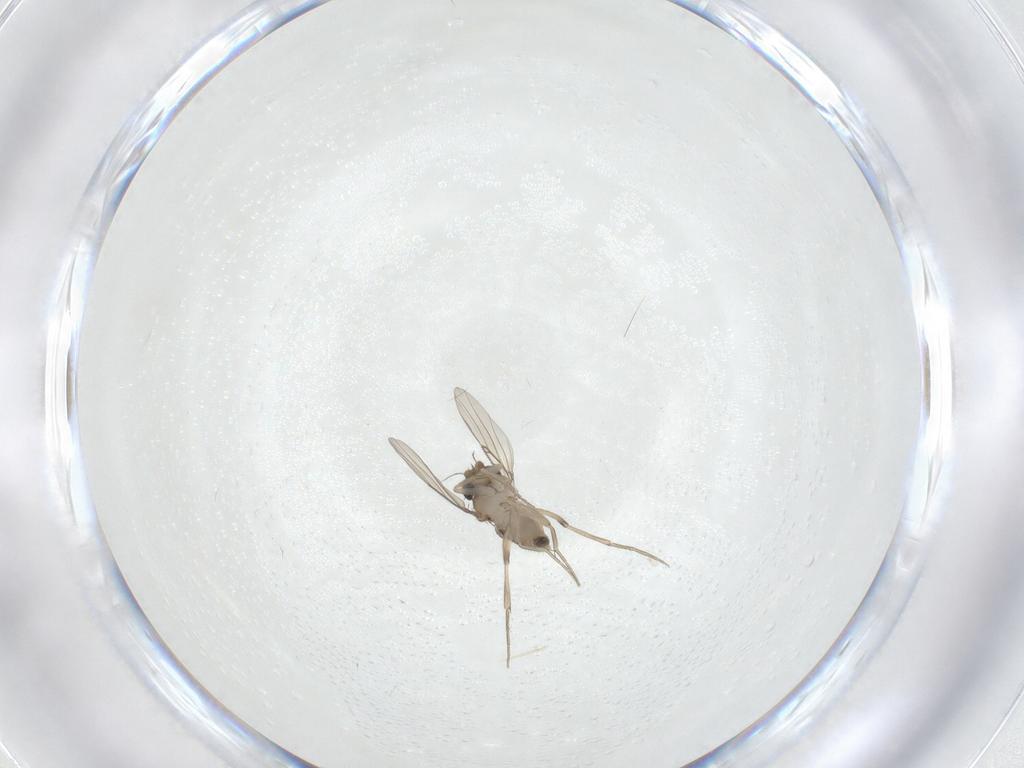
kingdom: Animalia
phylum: Arthropoda
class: Insecta
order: Diptera
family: Phoridae
